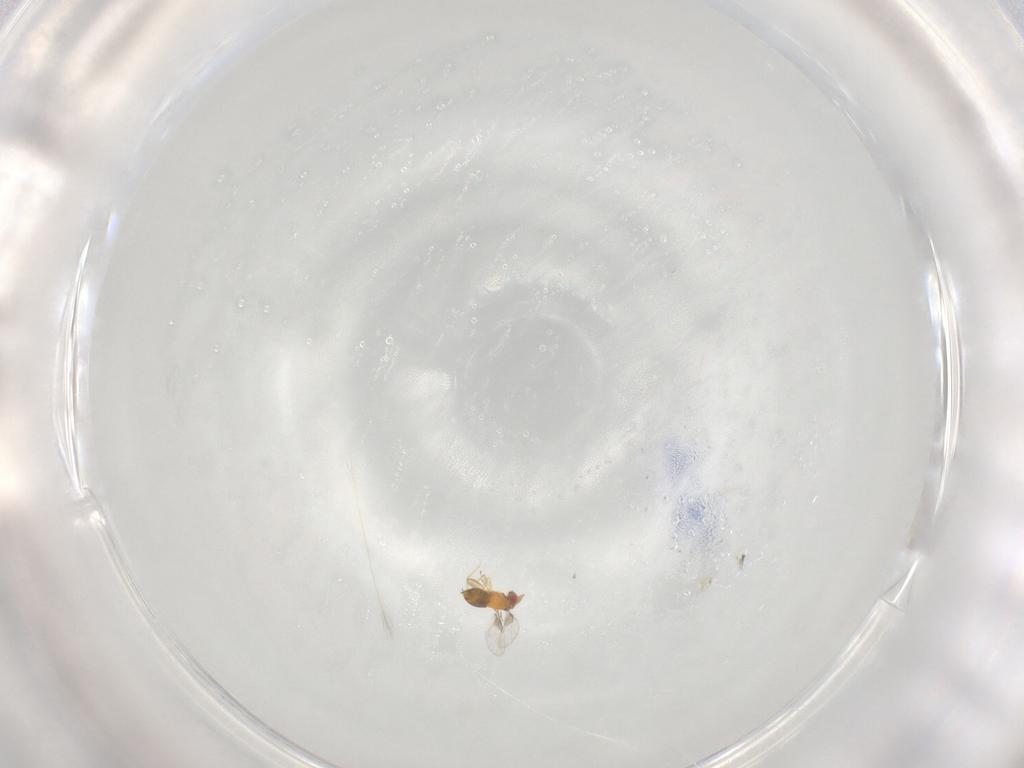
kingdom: Animalia
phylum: Arthropoda
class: Insecta
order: Hymenoptera
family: Trichogrammatidae
